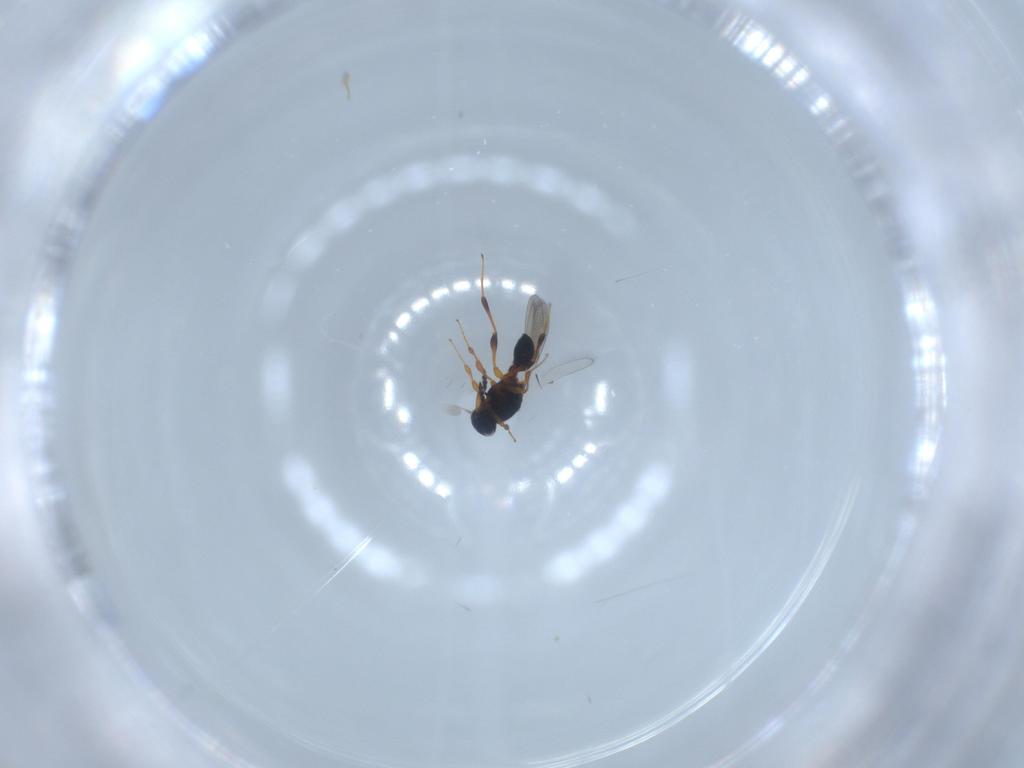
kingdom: Animalia
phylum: Arthropoda
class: Insecta
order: Hymenoptera
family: Platygastridae
